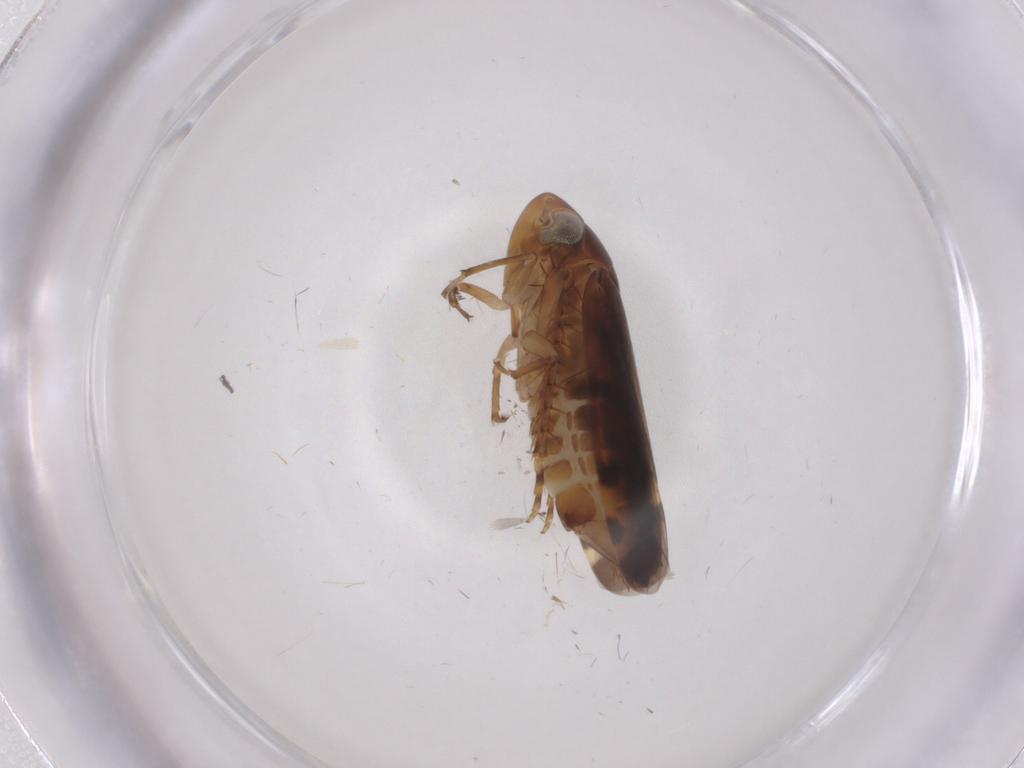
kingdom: Animalia
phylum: Arthropoda
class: Insecta
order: Hemiptera
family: Cicadellidae
